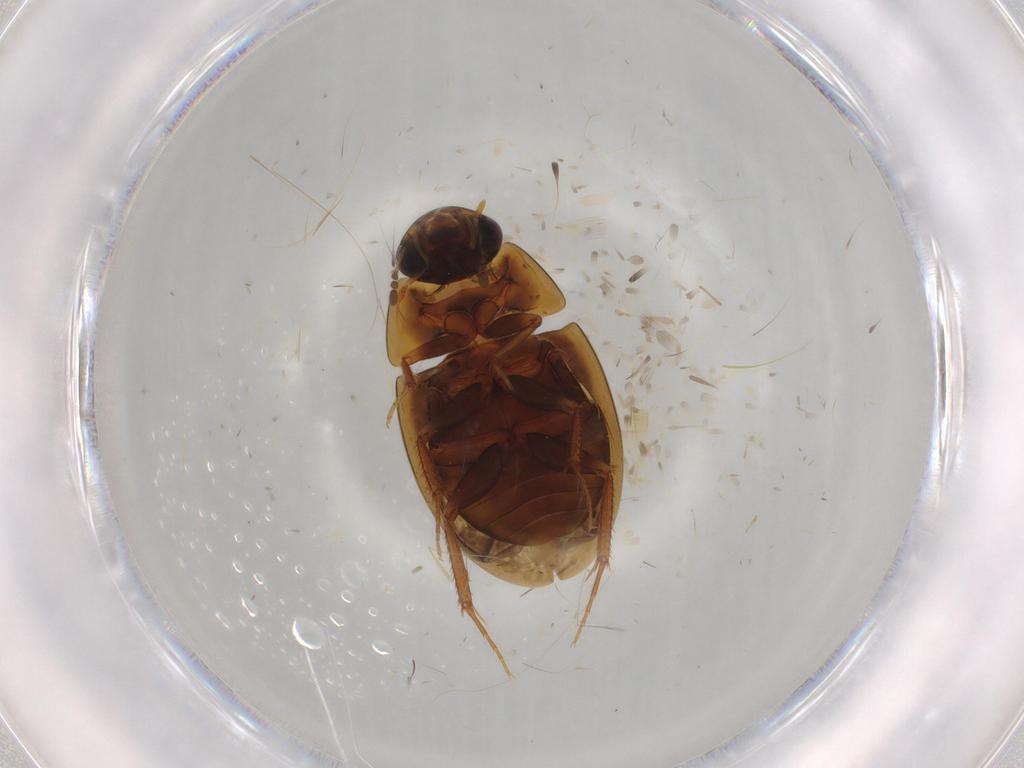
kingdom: Animalia
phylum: Arthropoda
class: Insecta
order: Coleoptera
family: Hydrophilidae
